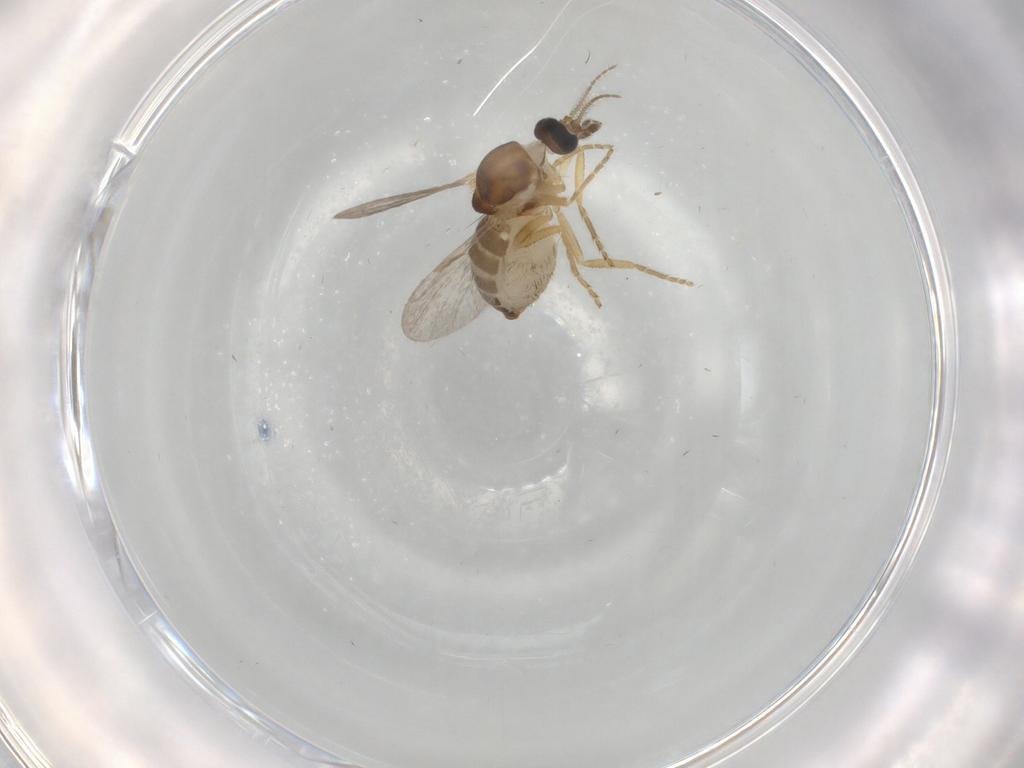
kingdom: Animalia
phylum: Arthropoda
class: Insecta
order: Diptera
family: Ceratopogonidae
